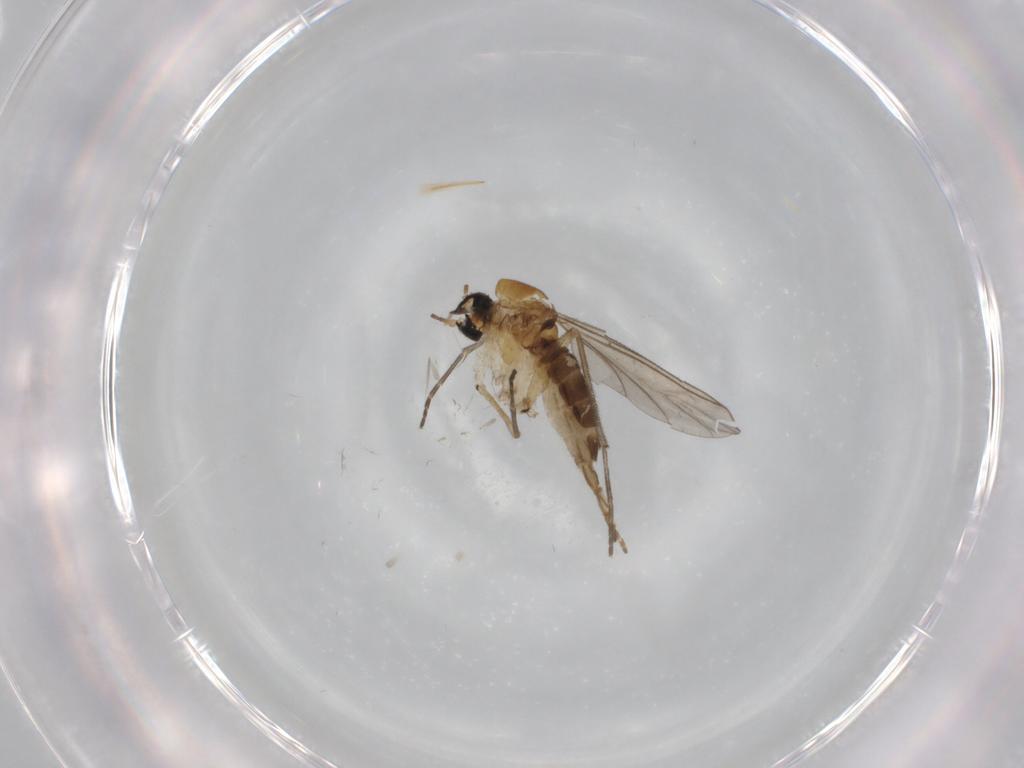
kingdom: Animalia
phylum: Arthropoda
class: Insecta
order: Diptera
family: Sciaridae
